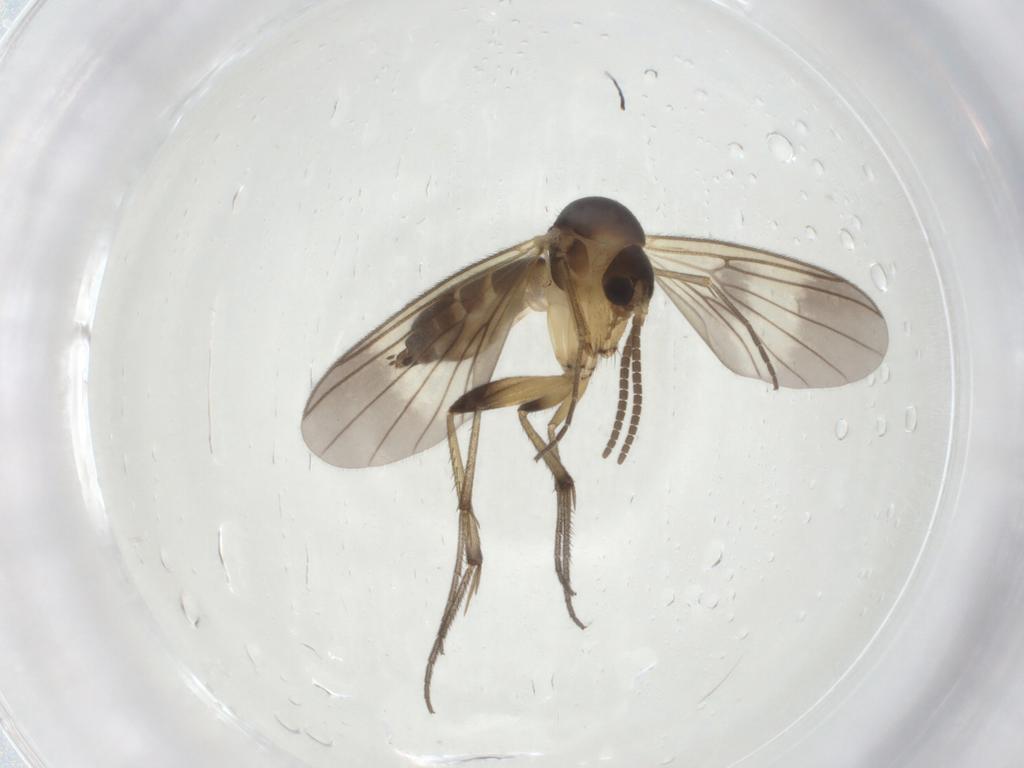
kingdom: Animalia
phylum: Arthropoda
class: Insecta
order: Diptera
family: Mycetophilidae
